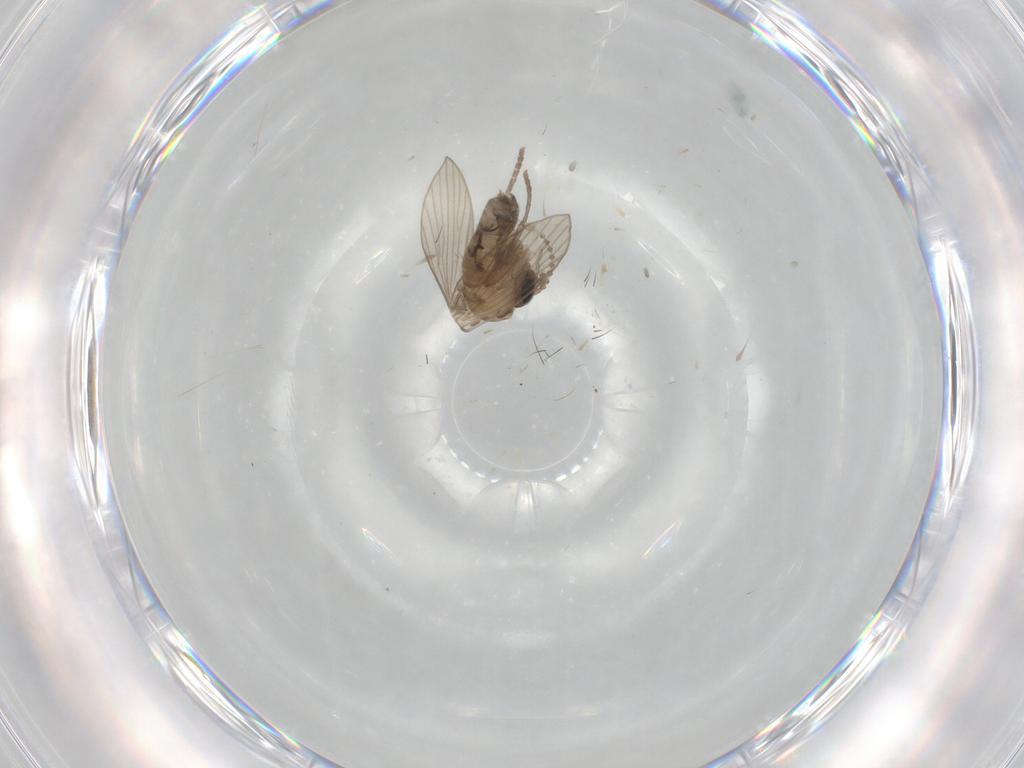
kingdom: Animalia
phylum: Arthropoda
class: Insecta
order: Diptera
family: Psychodidae
